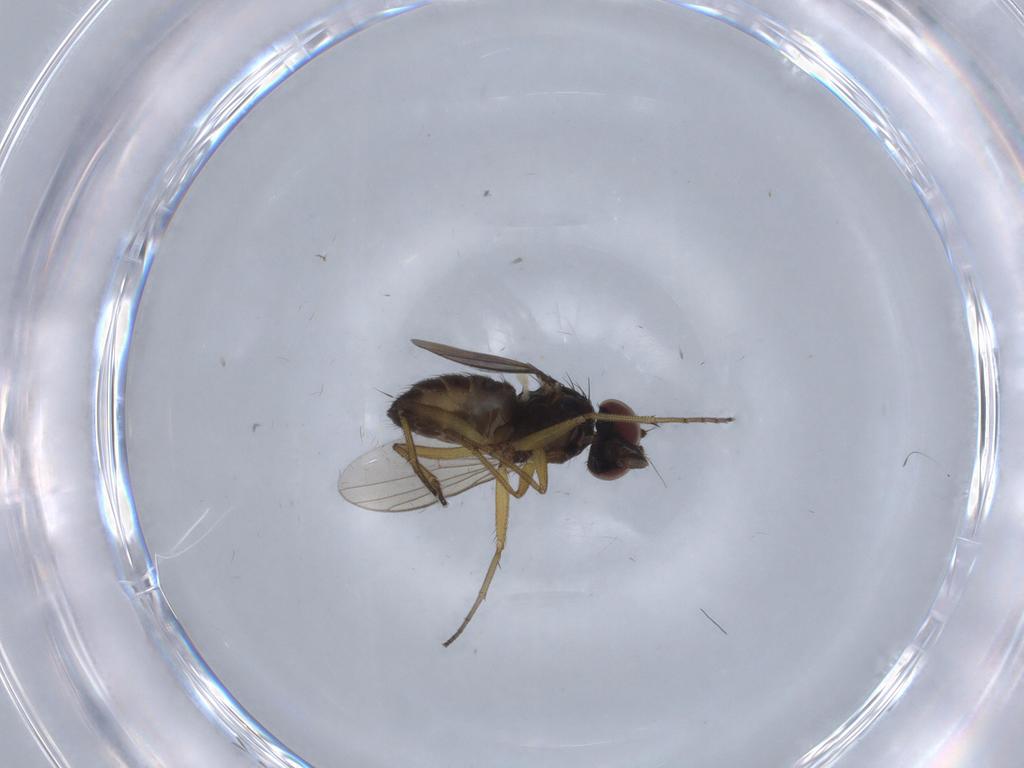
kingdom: Animalia
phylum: Arthropoda
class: Insecta
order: Diptera
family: Dolichopodidae
